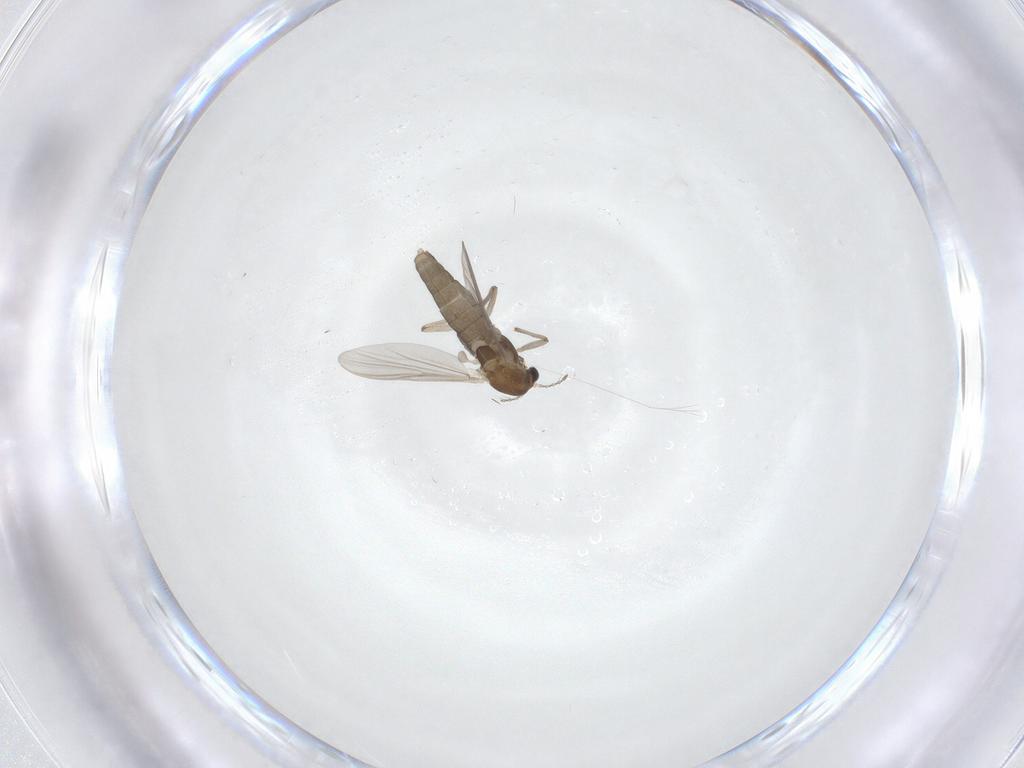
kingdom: Animalia
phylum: Arthropoda
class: Insecta
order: Diptera
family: Chironomidae
